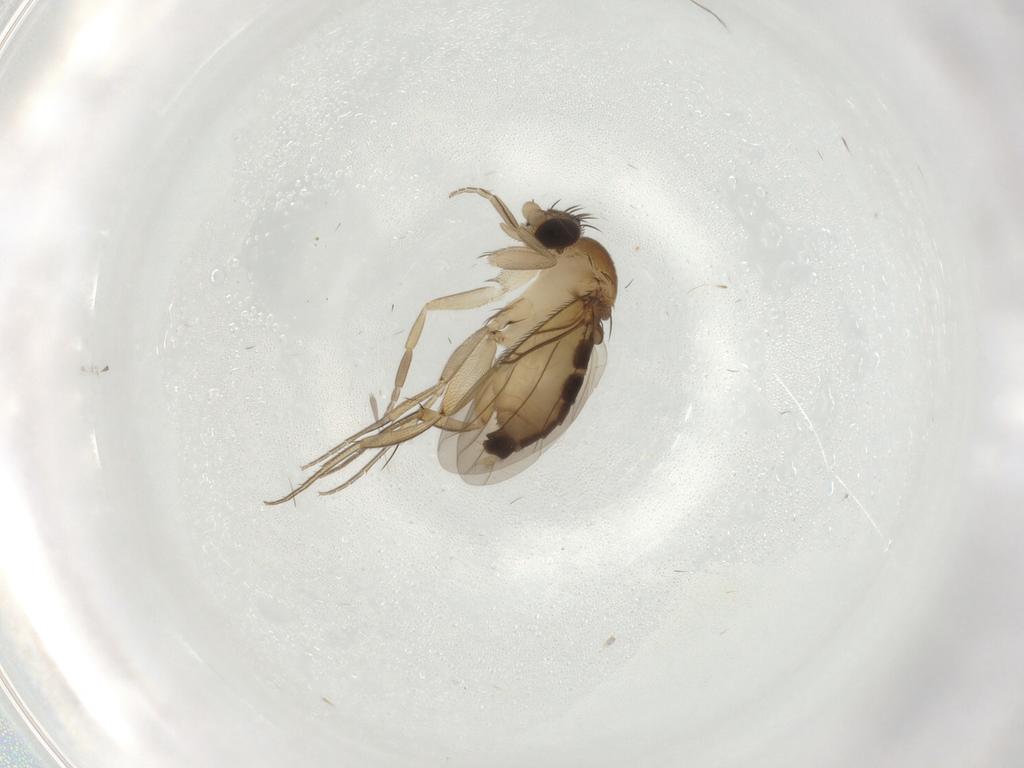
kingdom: Animalia
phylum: Arthropoda
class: Insecta
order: Diptera
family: Phoridae
